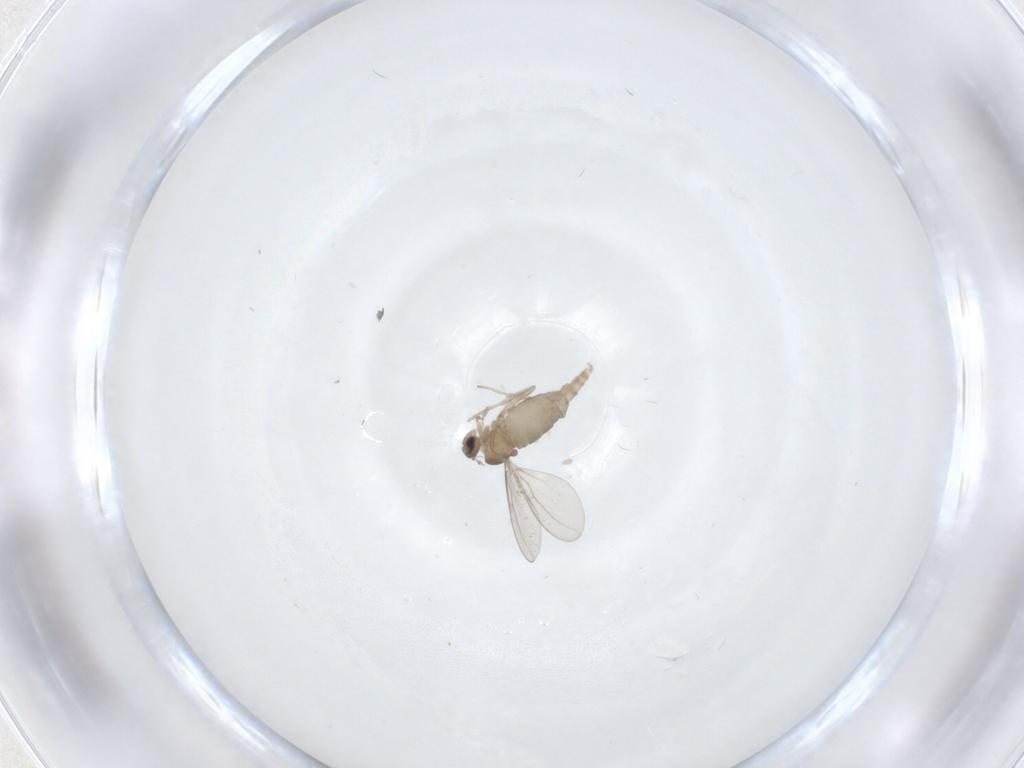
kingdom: Animalia
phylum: Arthropoda
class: Insecta
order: Diptera
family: Cecidomyiidae
